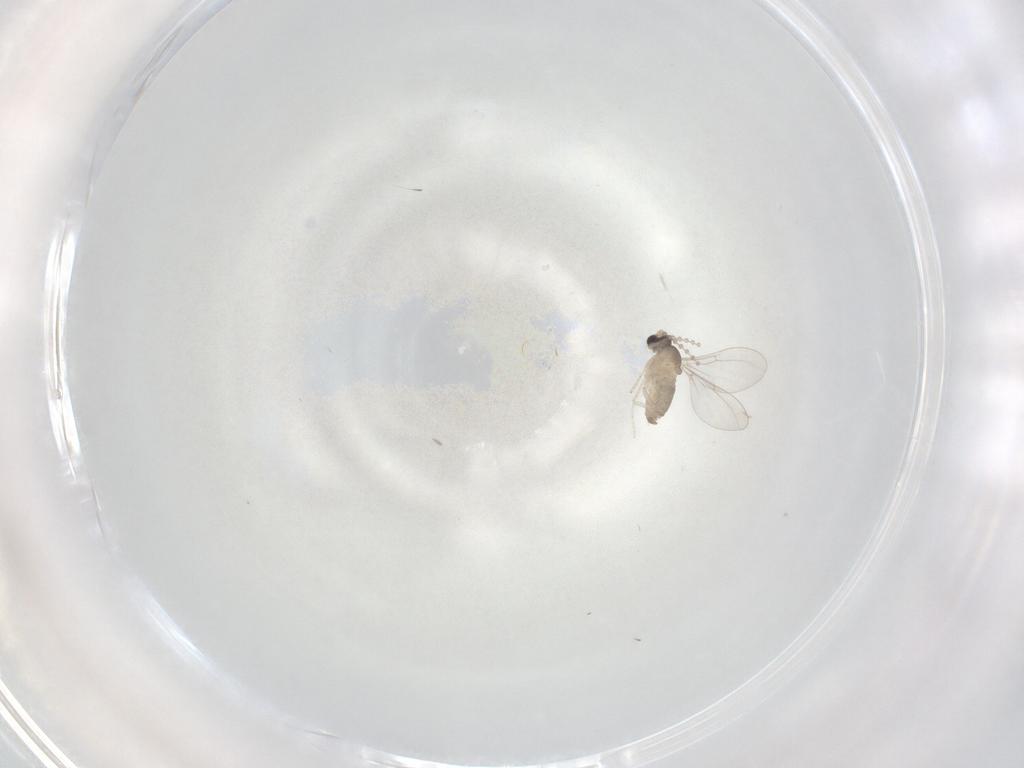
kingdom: Animalia
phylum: Arthropoda
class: Insecta
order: Diptera
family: Cecidomyiidae
